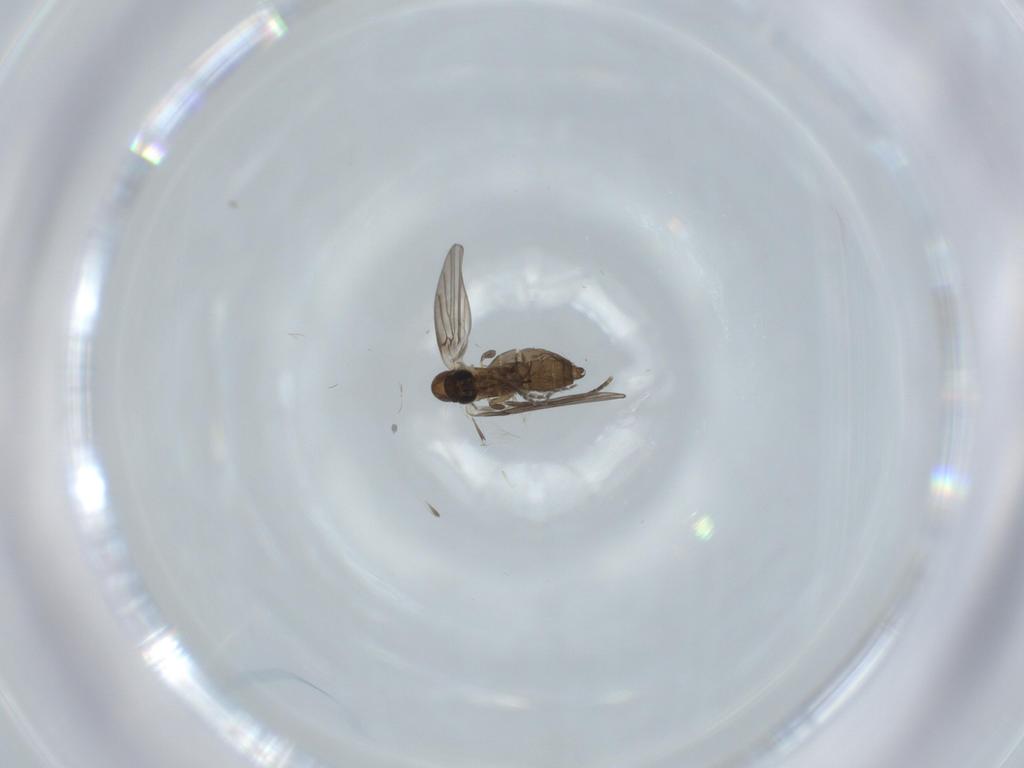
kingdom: Animalia
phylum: Arthropoda
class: Insecta
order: Diptera
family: Psychodidae
